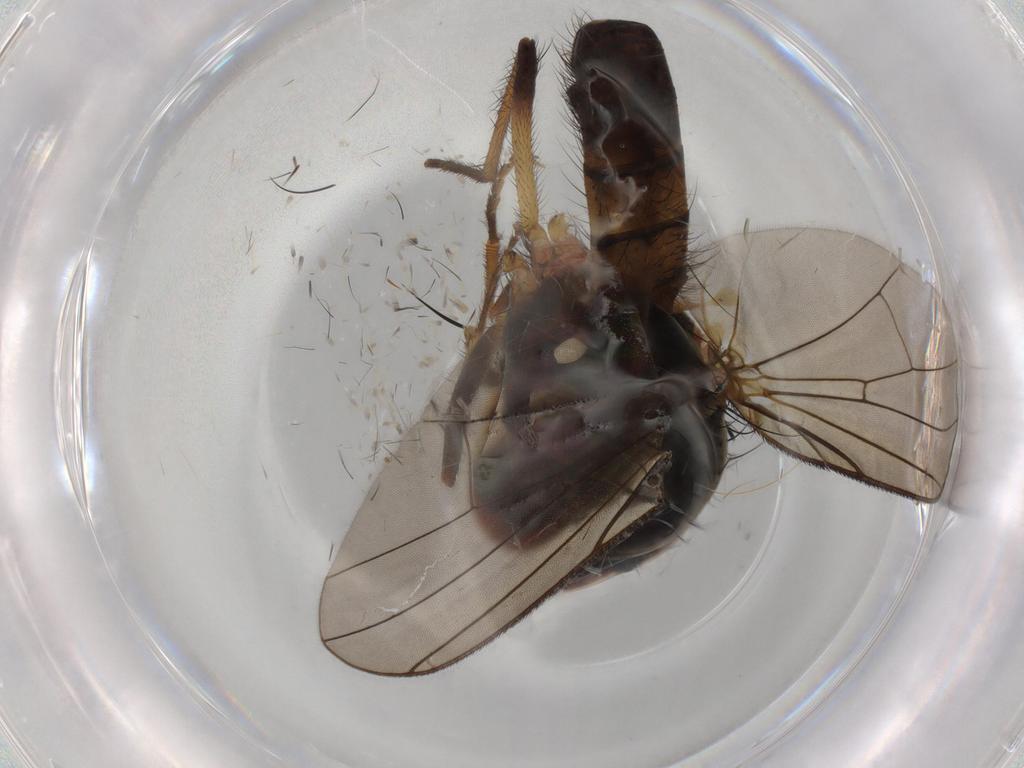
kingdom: Animalia
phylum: Arthropoda
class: Insecta
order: Diptera
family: Anthomyiidae
